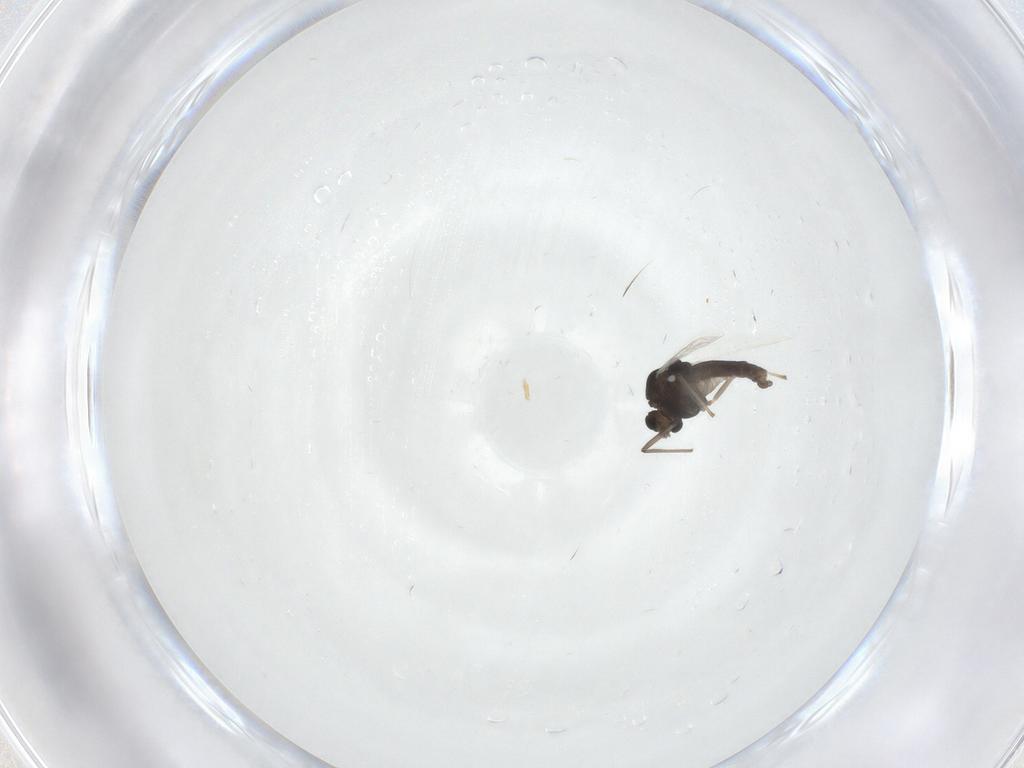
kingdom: Animalia
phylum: Arthropoda
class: Insecta
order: Diptera
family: Chironomidae
